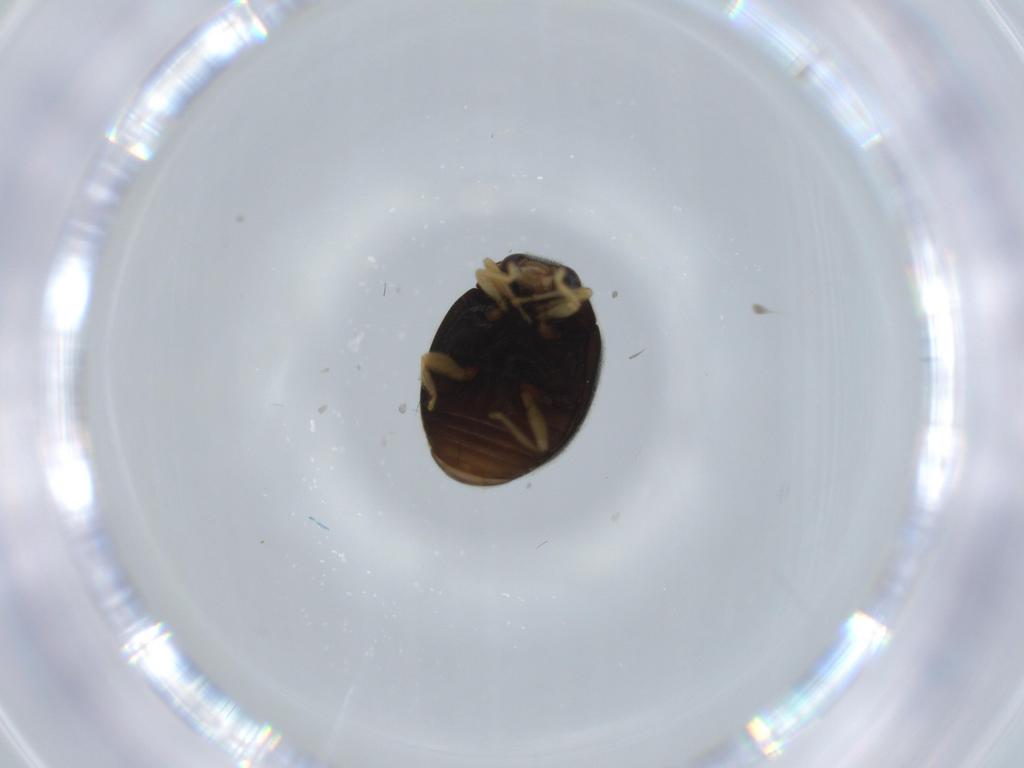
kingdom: Animalia
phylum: Arthropoda
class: Insecta
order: Coleoptera
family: Coccinellidae
